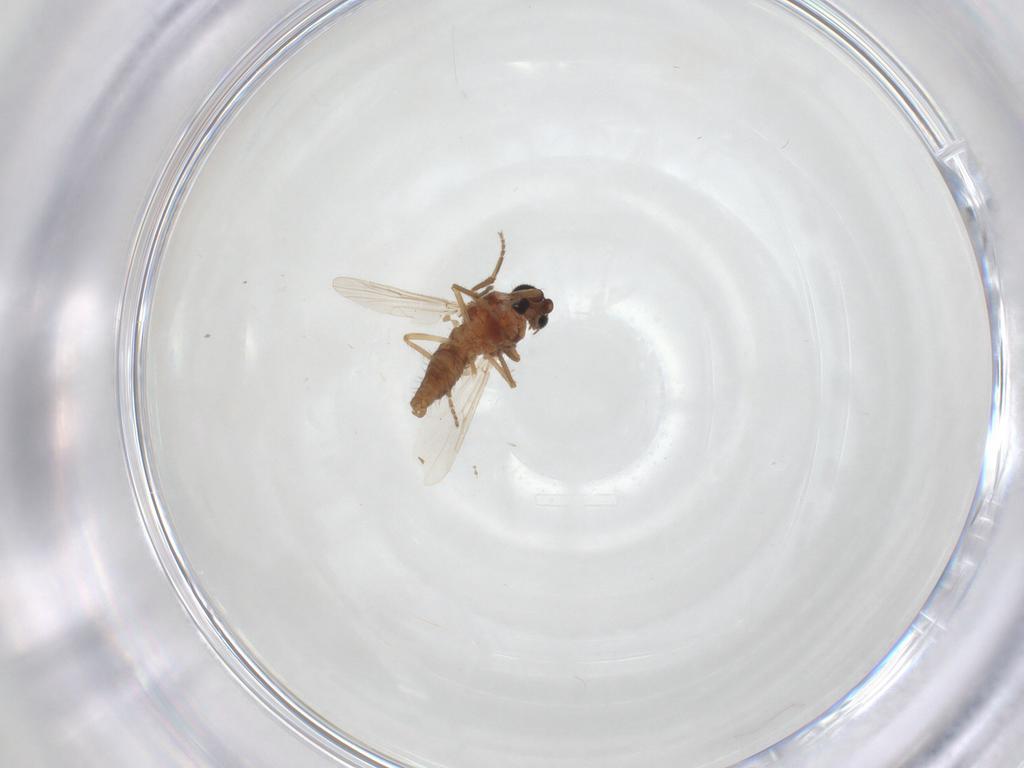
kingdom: Animalia
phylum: Arthropoda
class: Insecta
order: Diptera
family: Ceratopogonidae
